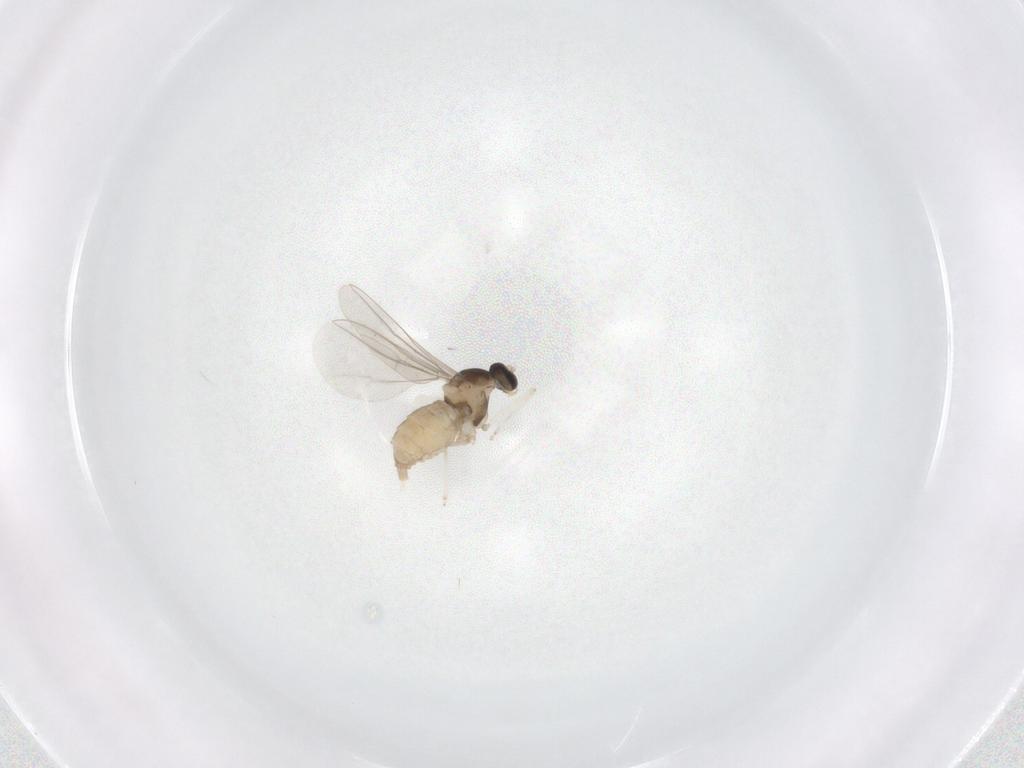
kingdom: Animalia
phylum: Arthropoda
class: Insecta
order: Diptera
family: Cecidomyiidae
